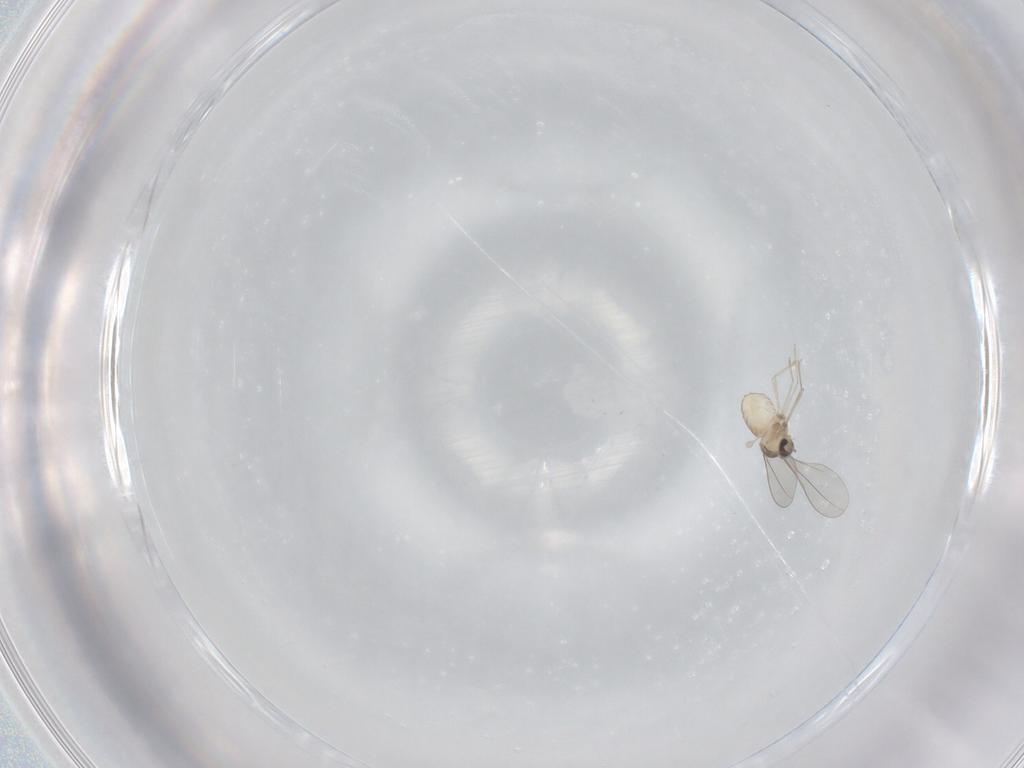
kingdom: Animalia
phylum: Arthropoda
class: Insecta
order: Diptera
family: Cecidomyiidae
